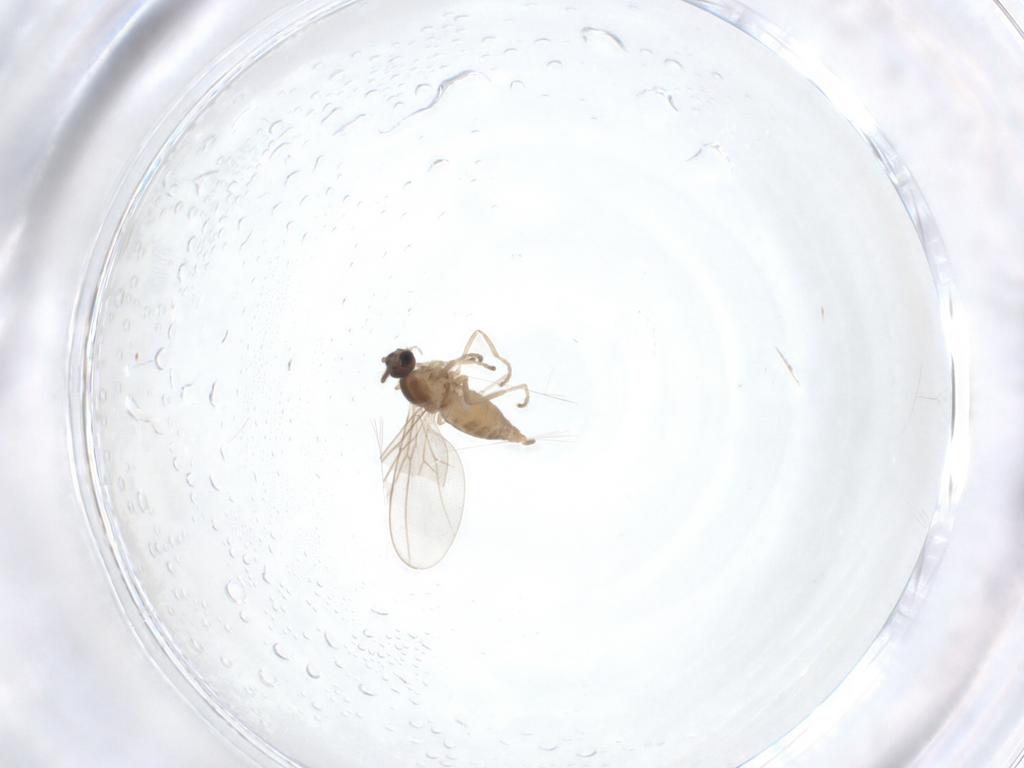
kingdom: Animalia
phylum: Arthropoda
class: Insecta
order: Diptera
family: Cecidomyiidae
